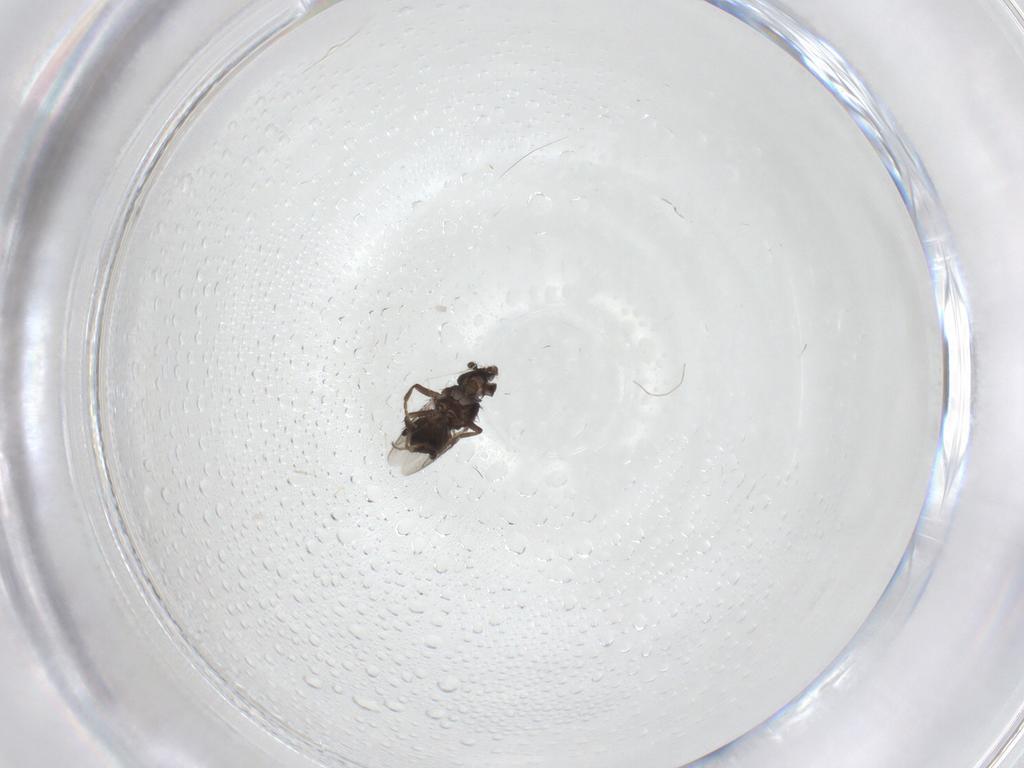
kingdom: Animalia
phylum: Arthropoda
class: Insecta
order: Diptera
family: Cecidomyiidae
